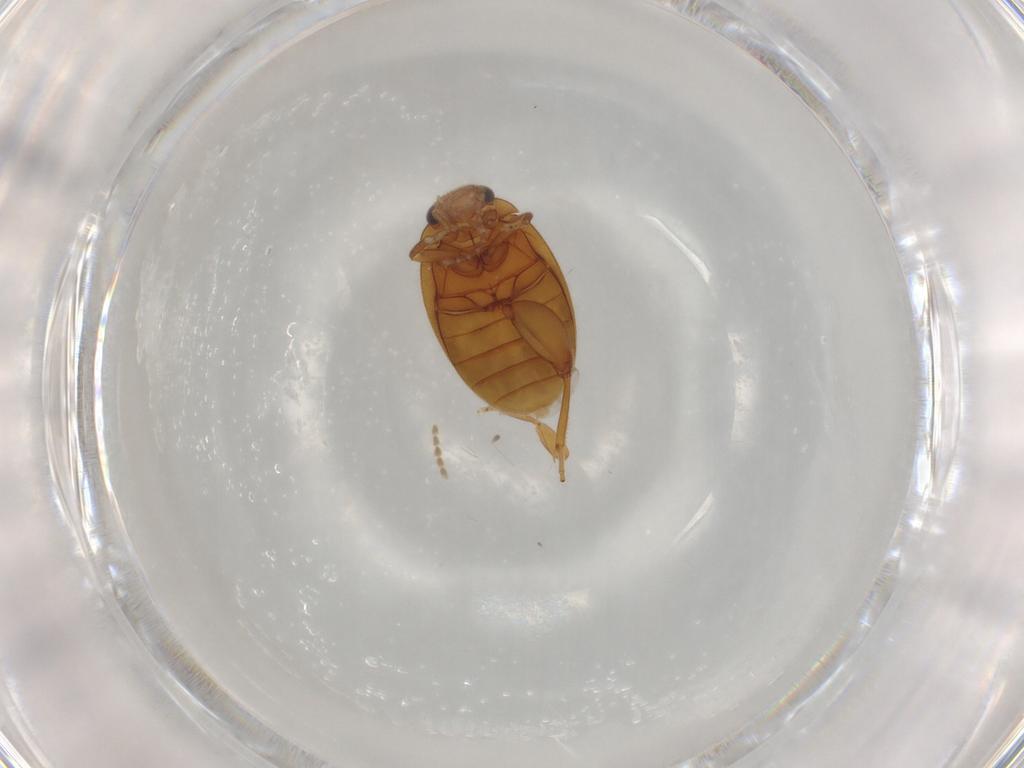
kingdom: Animalia
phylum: Arthropoda
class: Insecta
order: Coleoptera
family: Scirtidae
